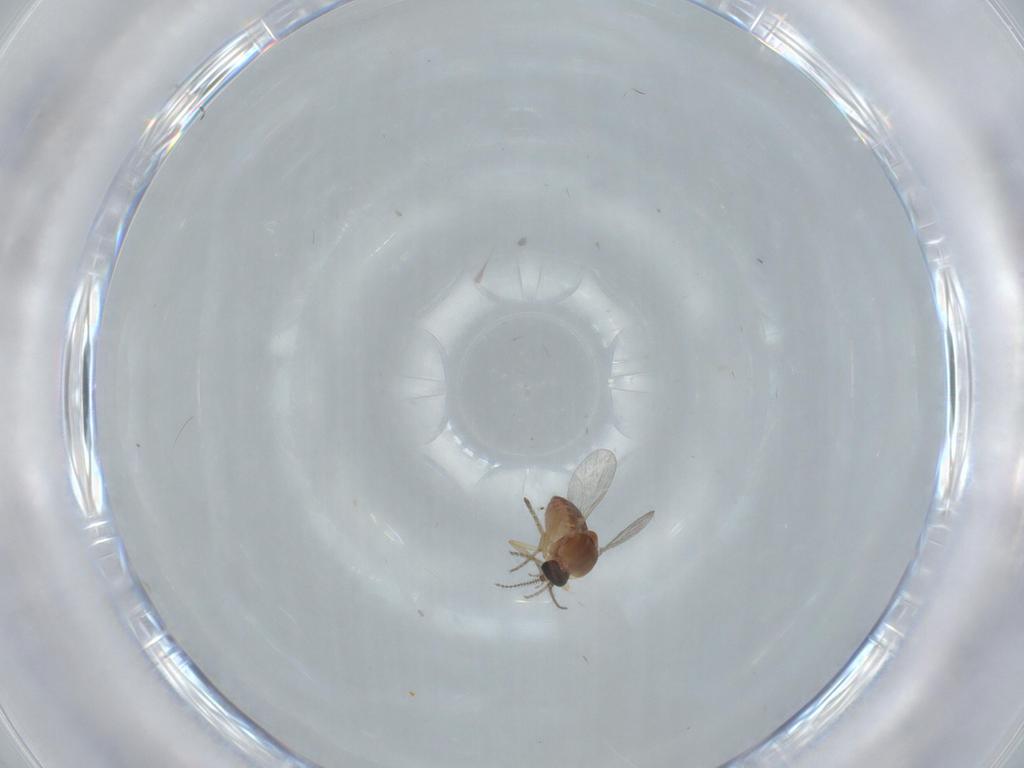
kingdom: Animalia
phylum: Arthropoda
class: Insecta
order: Diptera
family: Ceratopogonidae
